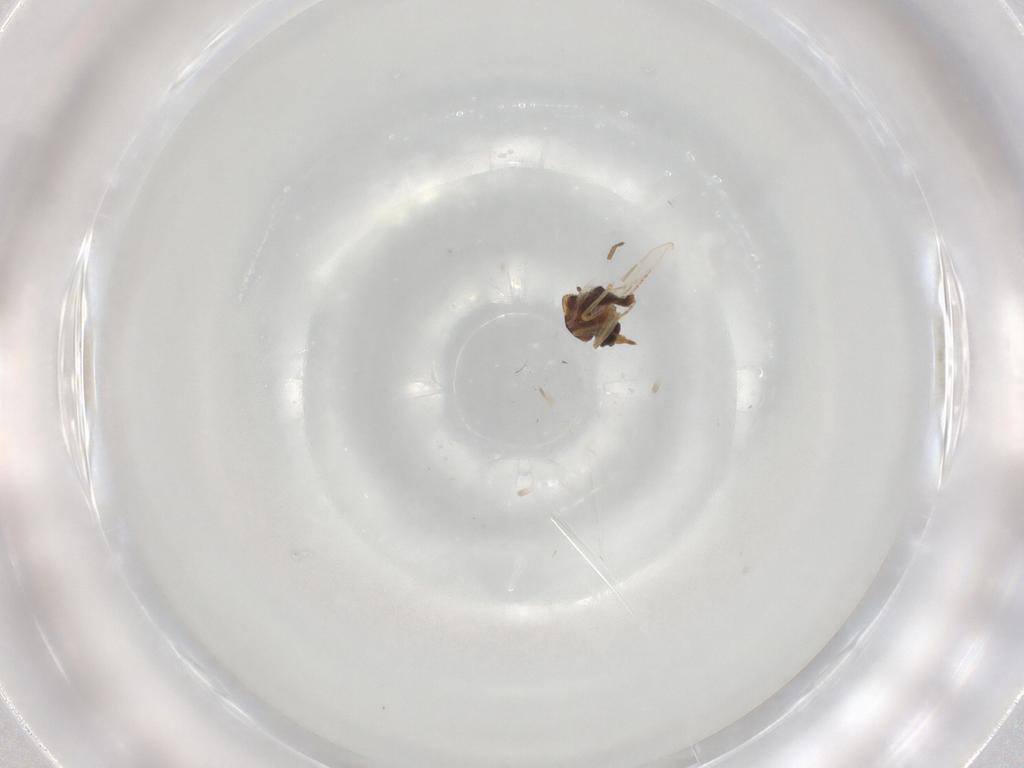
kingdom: Animalia
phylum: Arthropoda
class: Insecta
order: Diptera
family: Ceratopogonidae
